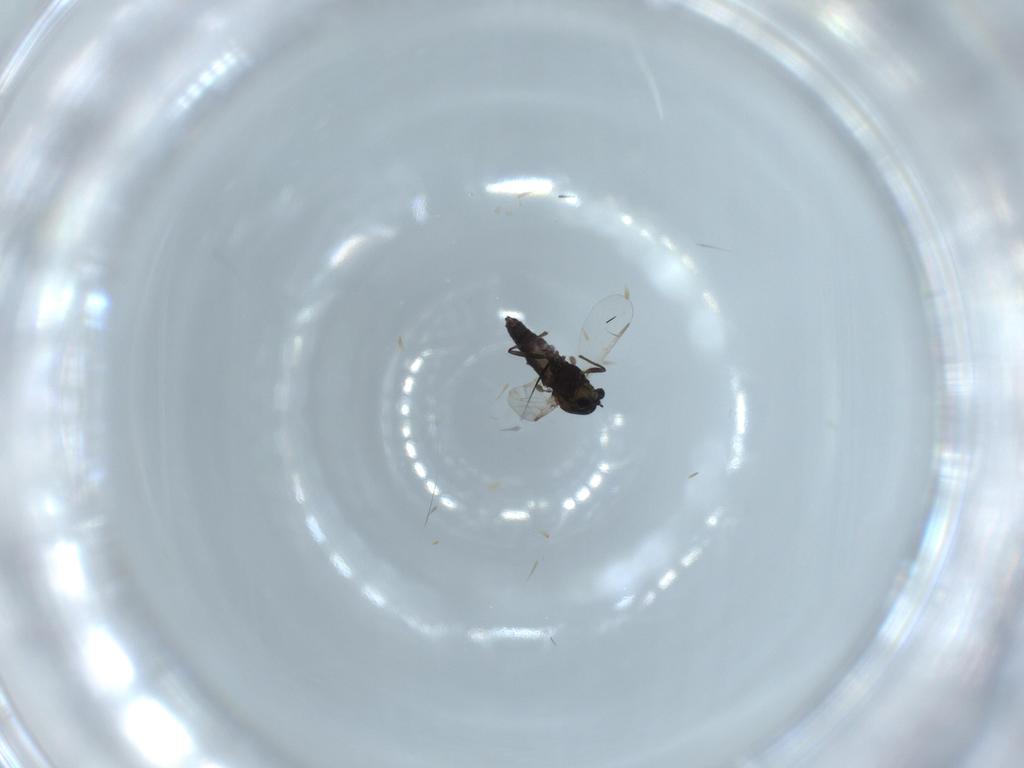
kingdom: Animalia
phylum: Arthropoda
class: Insecta
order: Diptera
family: Chironomidae
